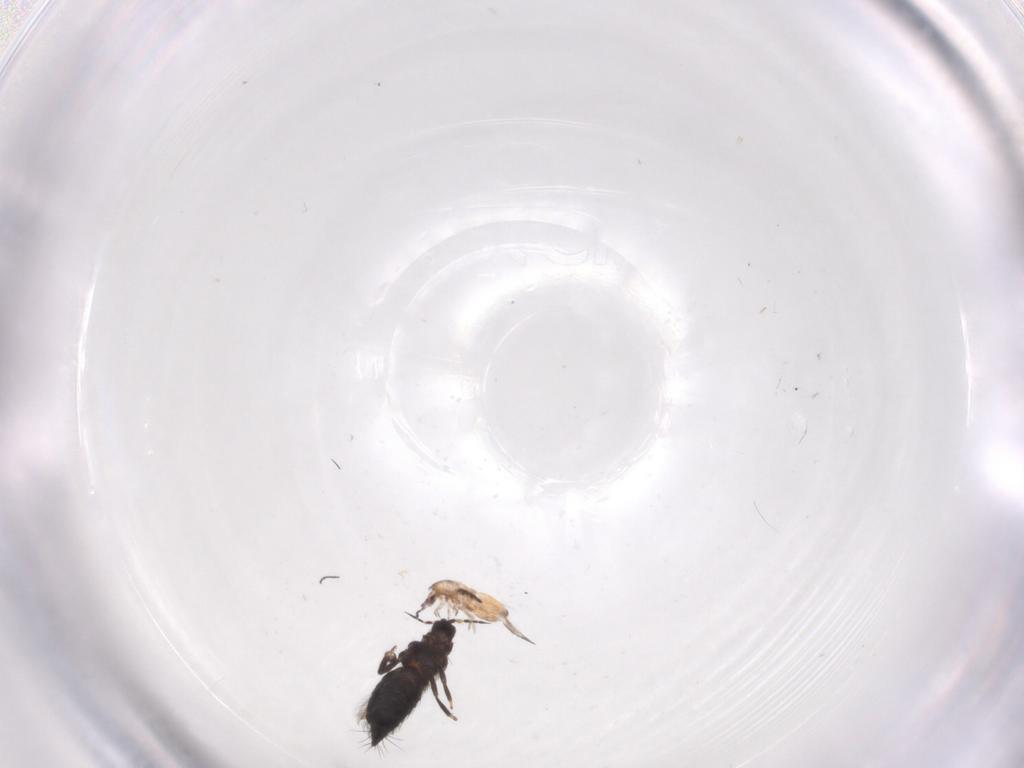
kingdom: Animalia
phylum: Arthropoda
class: Collembola
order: Entomobryomorpha
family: Entomobryidae
